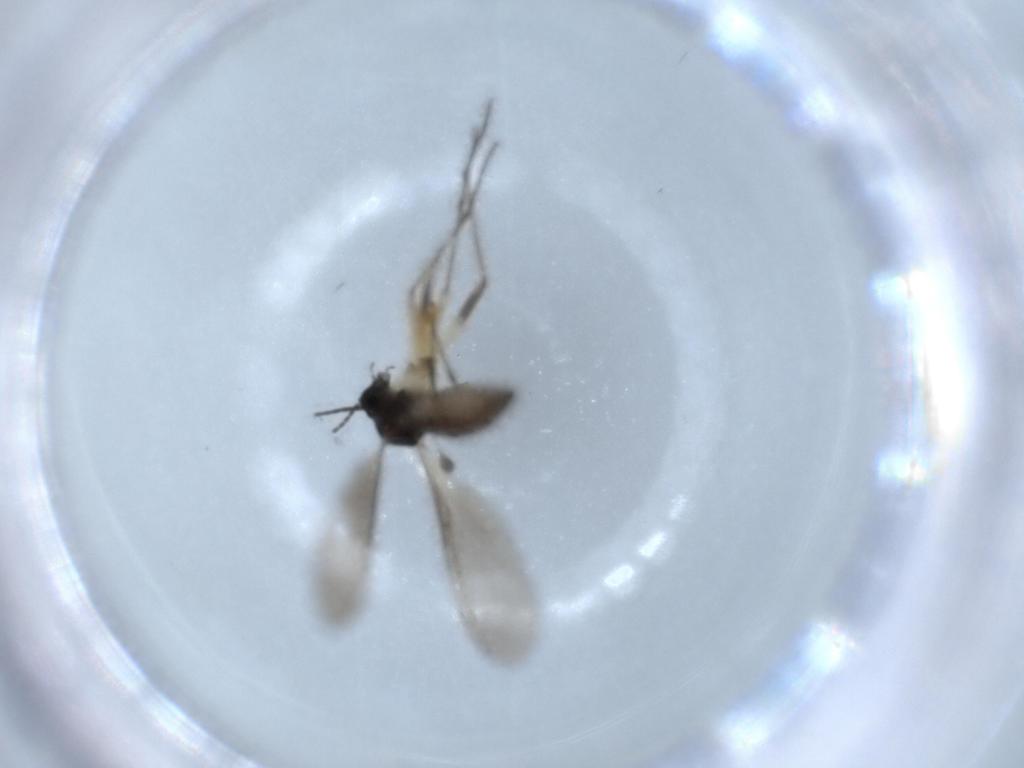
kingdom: Animalia
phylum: Arthropoda
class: Insecta
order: Diptera
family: Sciaridae
